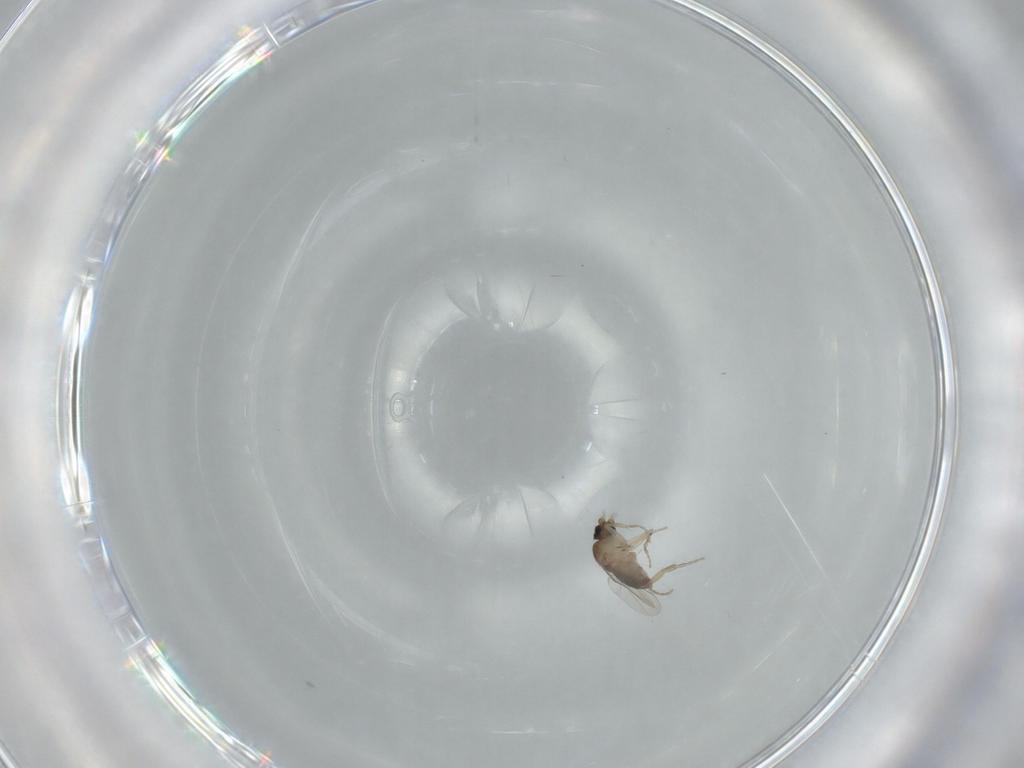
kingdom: Animalia
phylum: Arthropoda
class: Insecta
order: Diptera
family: Phoridae
